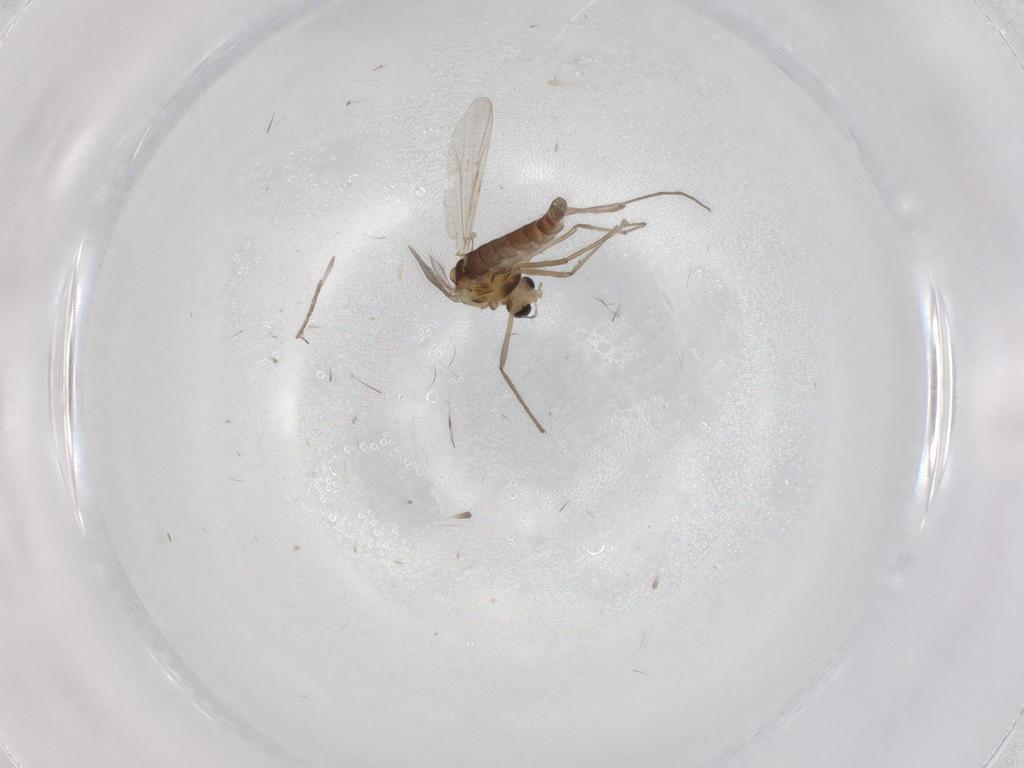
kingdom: Animalia
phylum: Arthropoda
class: Insecta
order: Diptera
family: Chironomidae
